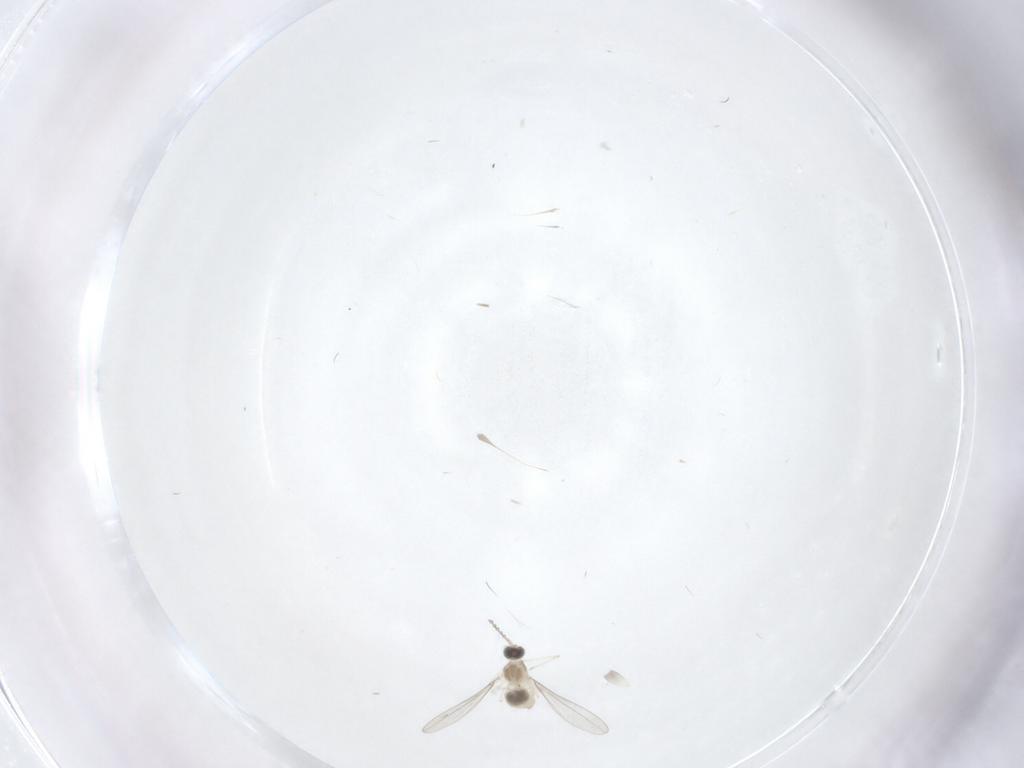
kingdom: Animalia
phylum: Arthropoda
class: Insecta
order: Diptera
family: Cecidomyiidae
